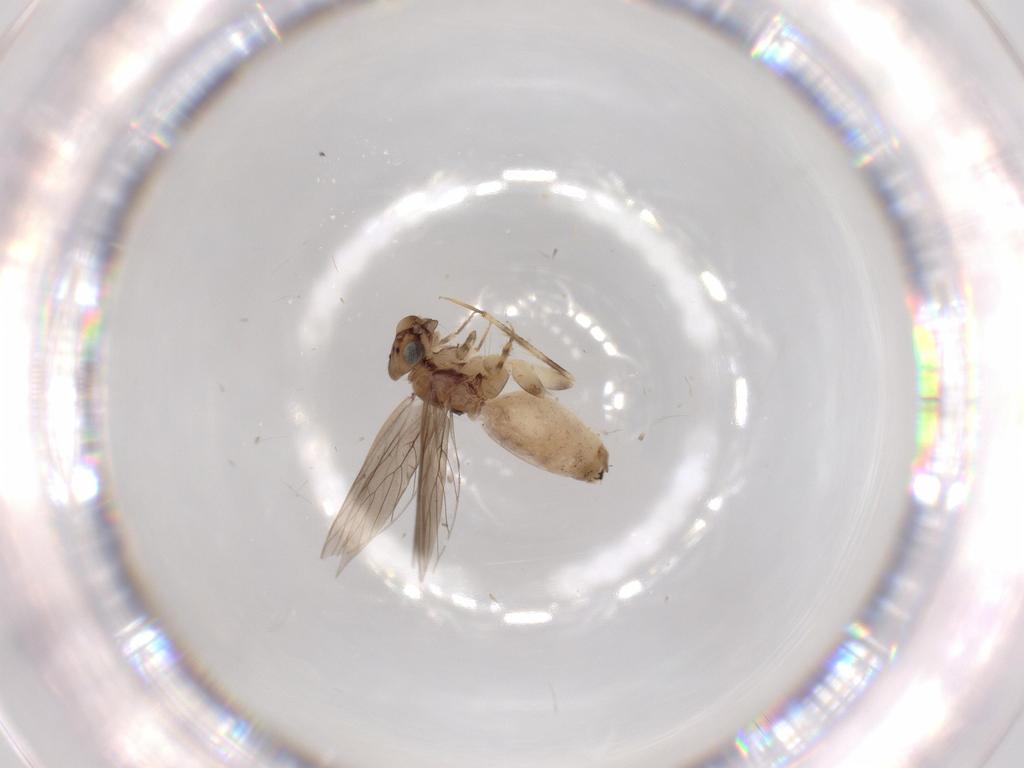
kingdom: Animalia
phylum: Arthropoda
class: Insecta
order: Psocodea
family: Lepidopsocidae
